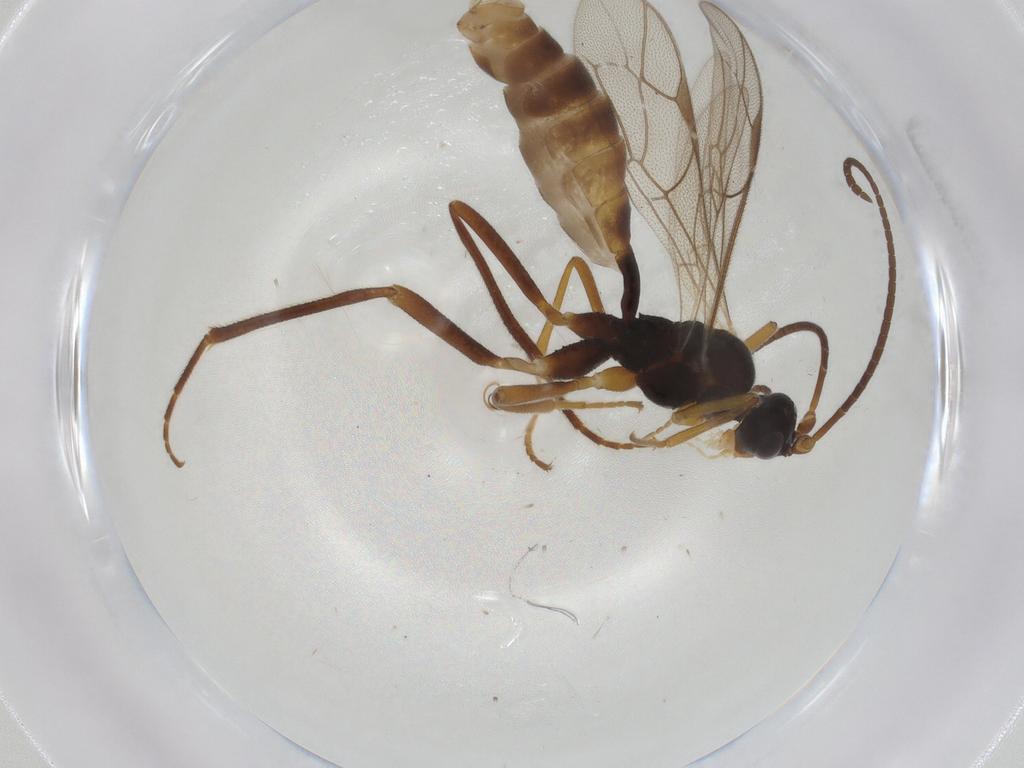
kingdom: Animalia
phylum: Arthropoda
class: Insecta
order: Hymenoptera
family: Ichneumonidae
